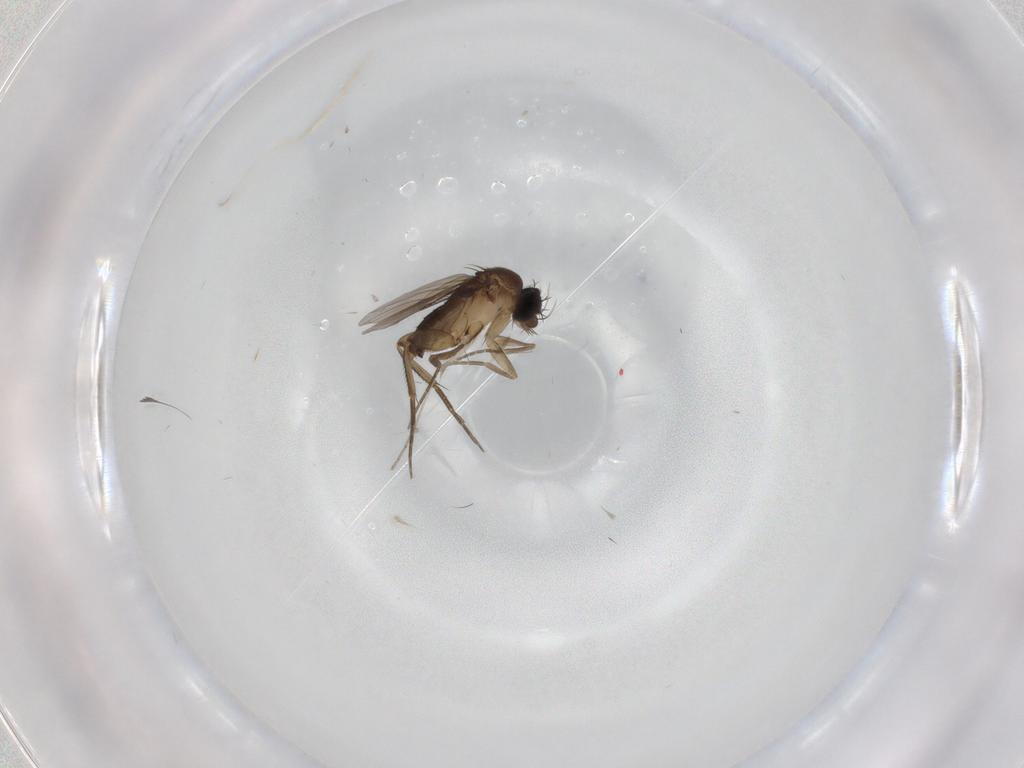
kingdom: Animalia
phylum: Arthropoda
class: Insecta
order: Diptera
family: Phoridae
